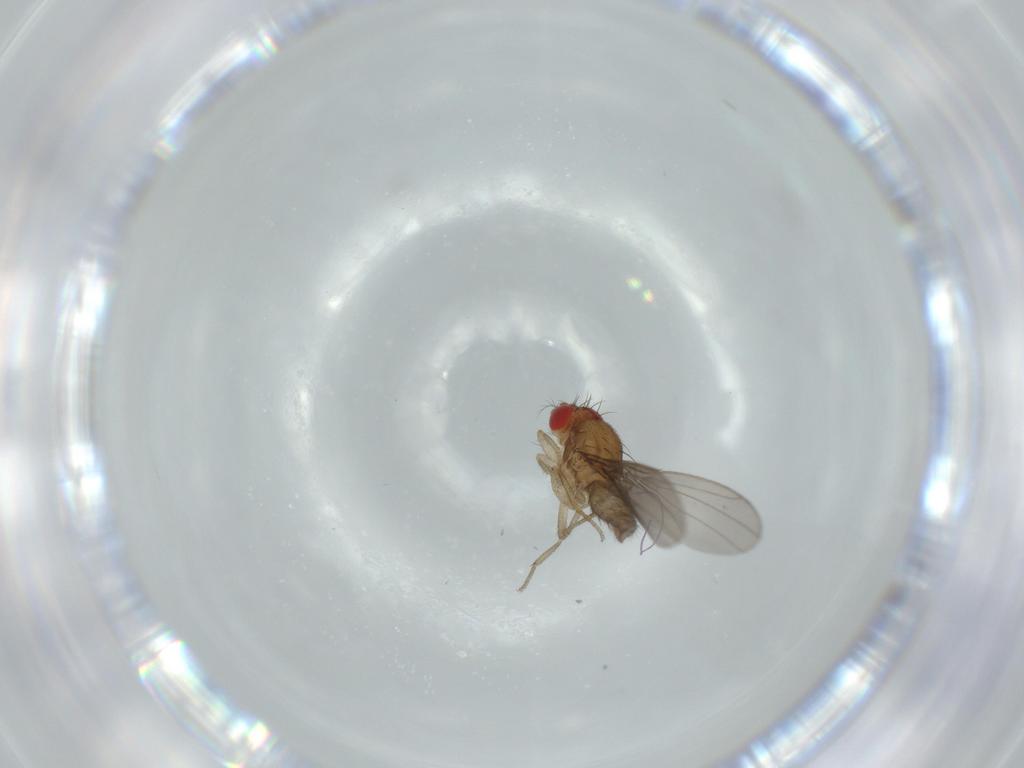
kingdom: Animalia
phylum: Arthropoda
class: Insecta
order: Diptera
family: Drosophilidae
